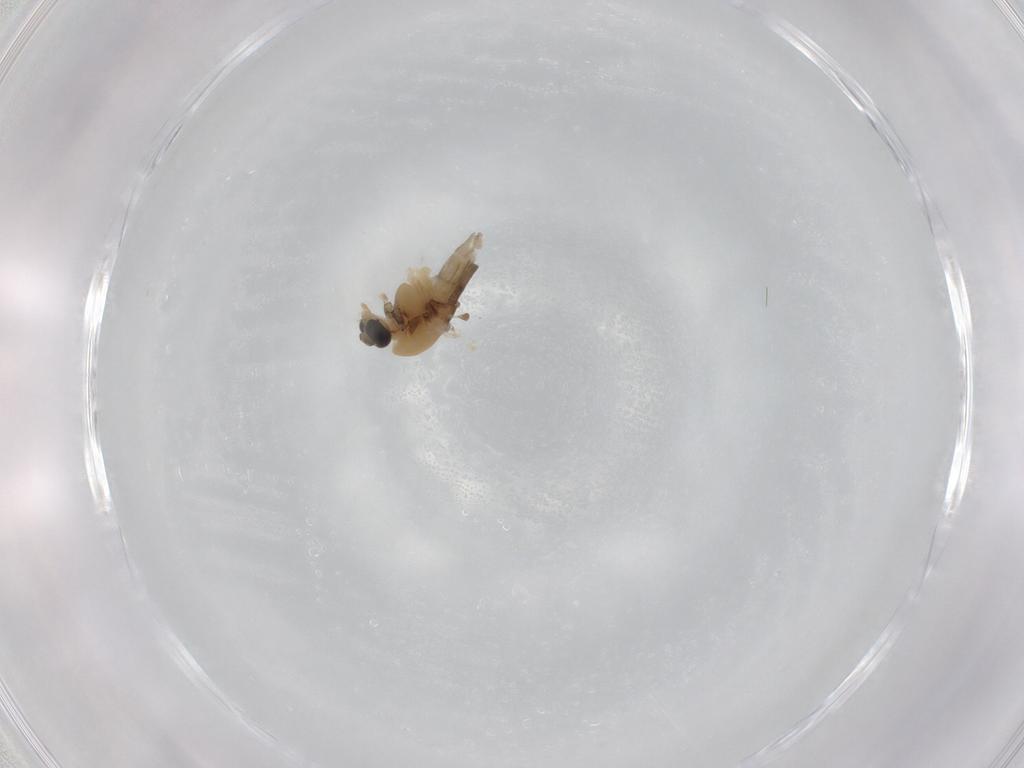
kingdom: Animalia
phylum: Arthropoda
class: Insecta
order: Diptera
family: Chironomidae
